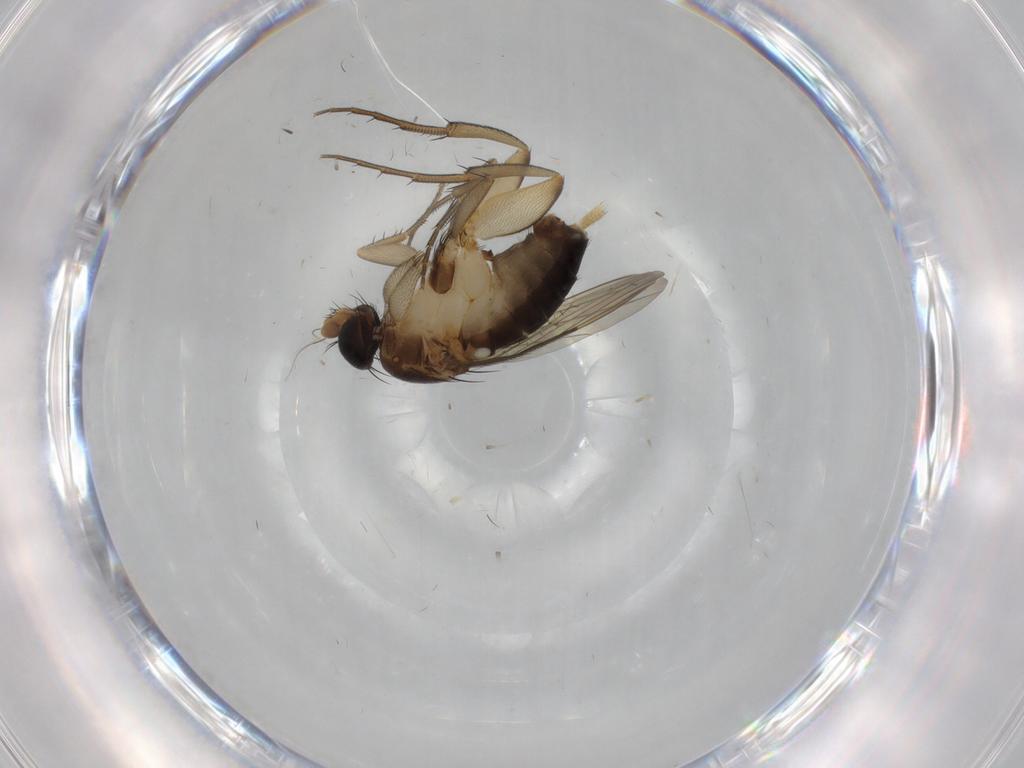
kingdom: Animalia
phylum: Arthropoda
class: Insecta
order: Diptera
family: Phoridae
